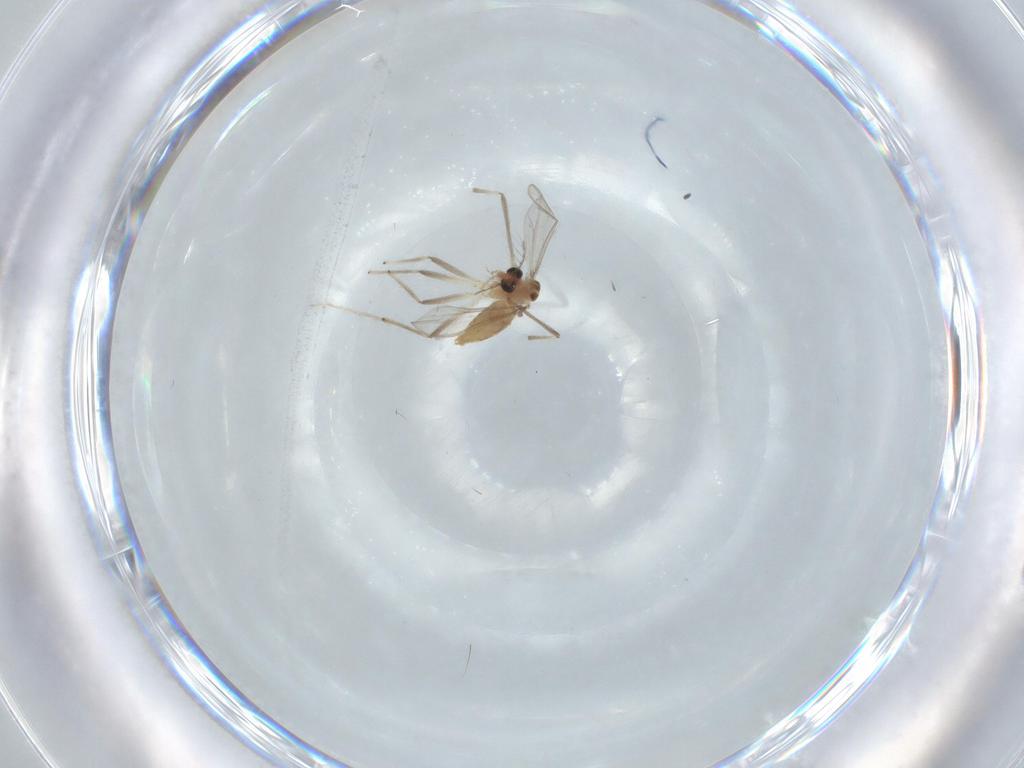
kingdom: Animalia
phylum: Arthropoda
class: Insecta
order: Diptera
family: Chironomidae
